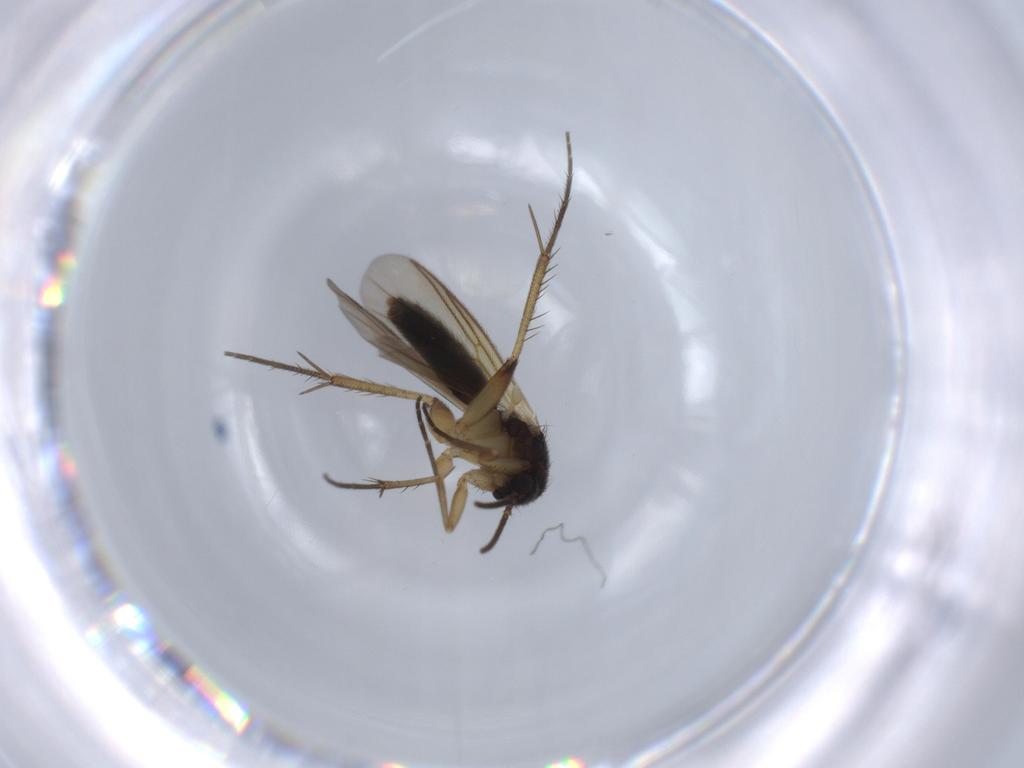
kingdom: Animalia
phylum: Arthropoda
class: Insecta
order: Diptera
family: Mycetophilidae
